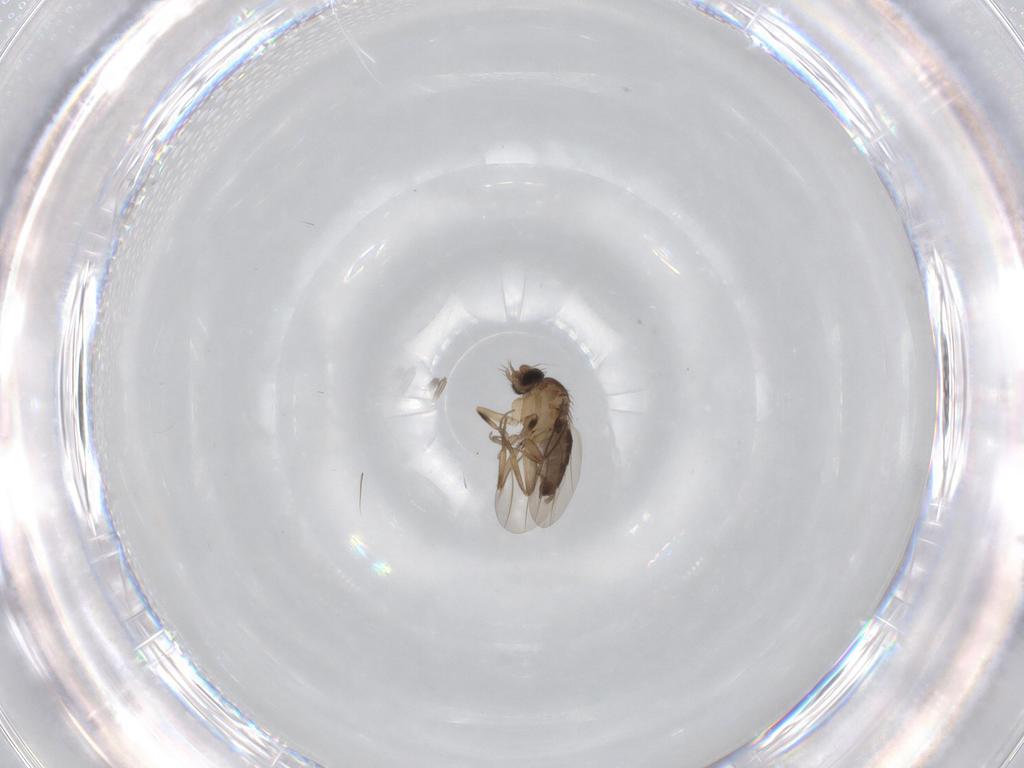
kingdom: Animalia
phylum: Arthropoda
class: Insecta
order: Diptera
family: Phoridae
